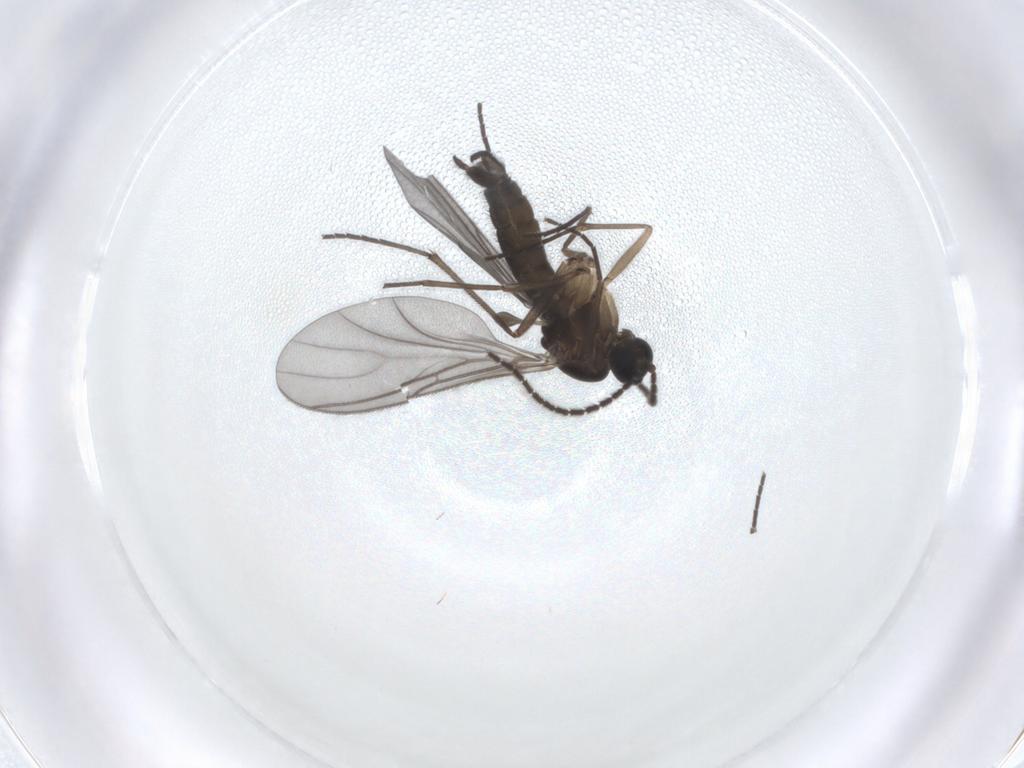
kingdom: Animalia
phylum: Arthropoda
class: Insecta
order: Diptera
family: Sciaridae
